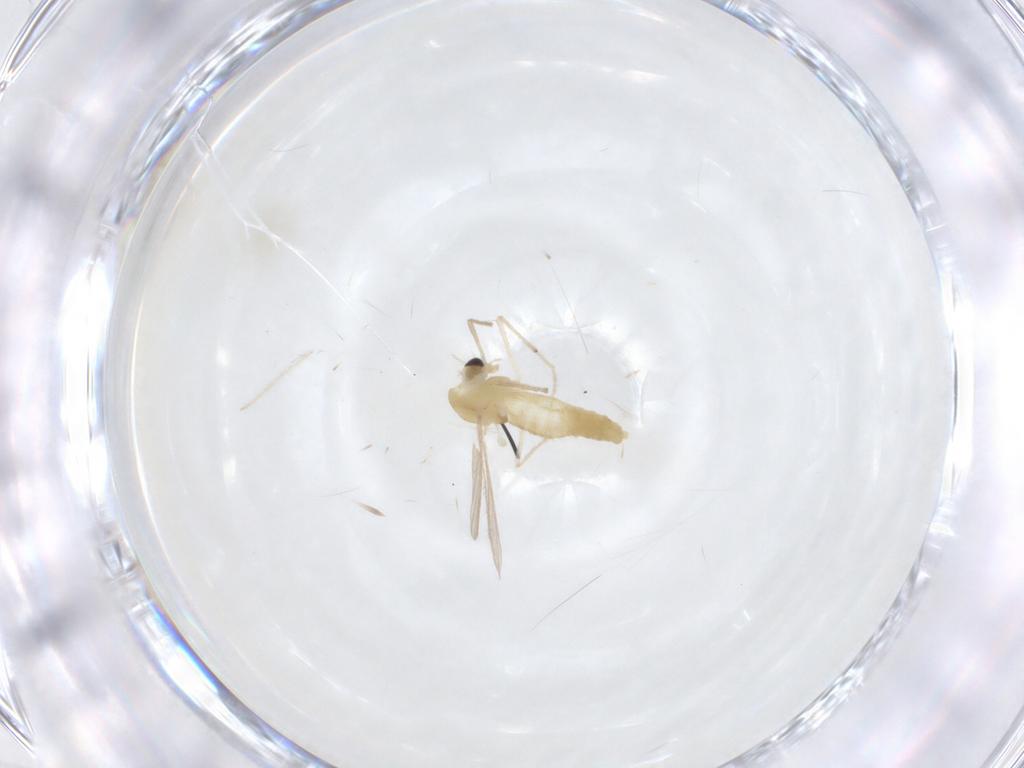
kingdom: Animalia
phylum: Arthropoda
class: Insecta
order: Diptera
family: Chironomidae
